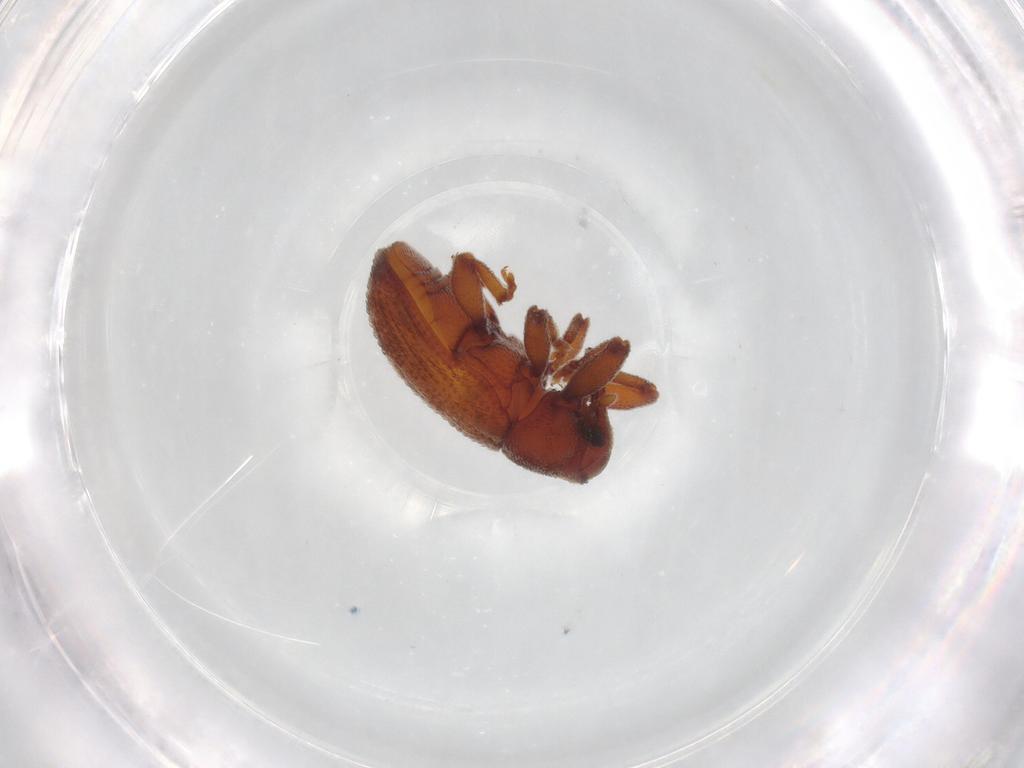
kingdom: Animalia
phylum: Arthropoda
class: Insecta
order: Coleoptera
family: Curculionidae
